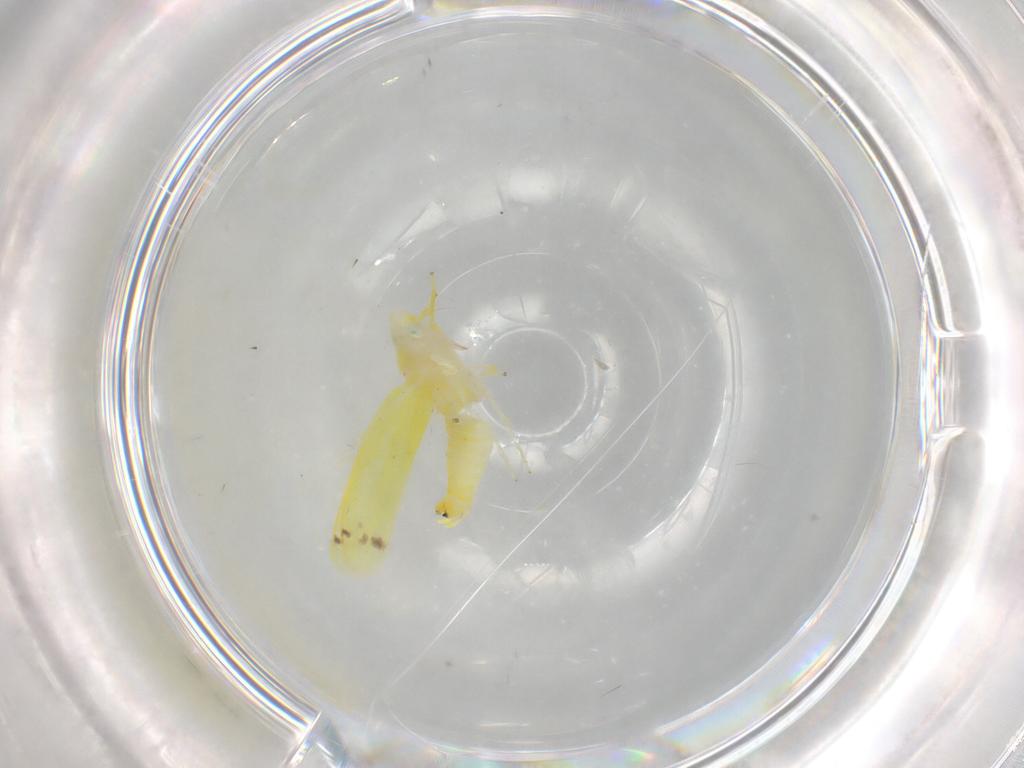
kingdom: Animalia
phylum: Arthropoda
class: Insecta
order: Hemiptera
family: Cicadellidae
